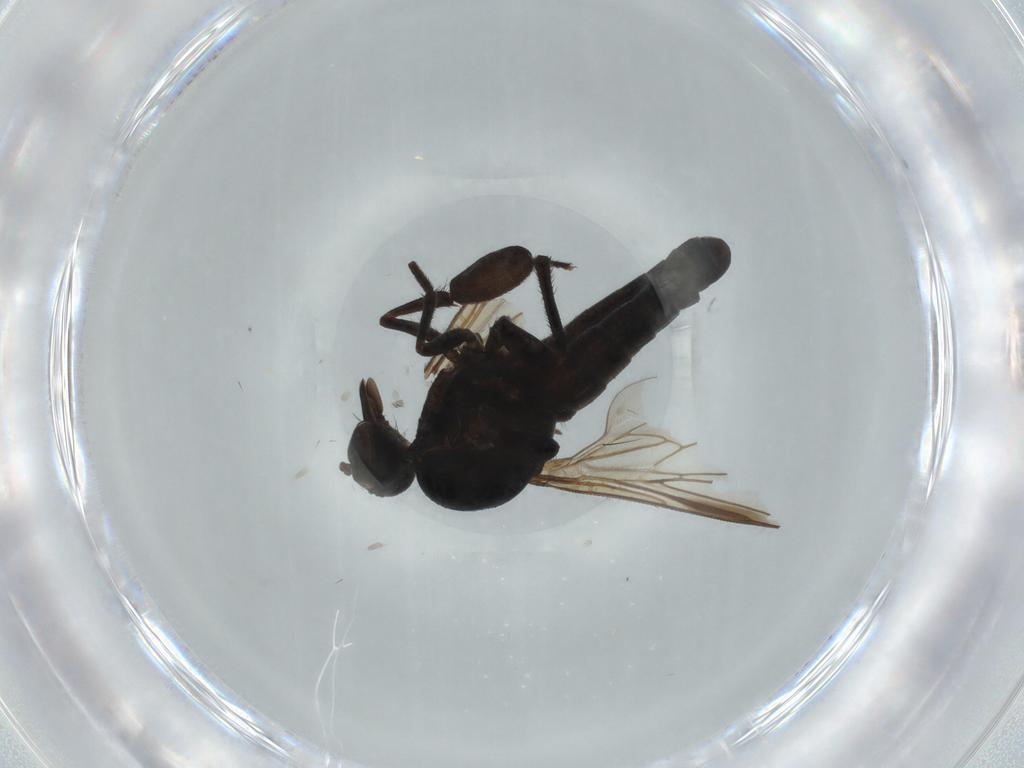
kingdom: Animalia
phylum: Arthropoda
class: Insecta
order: Diptera
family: Empididae
